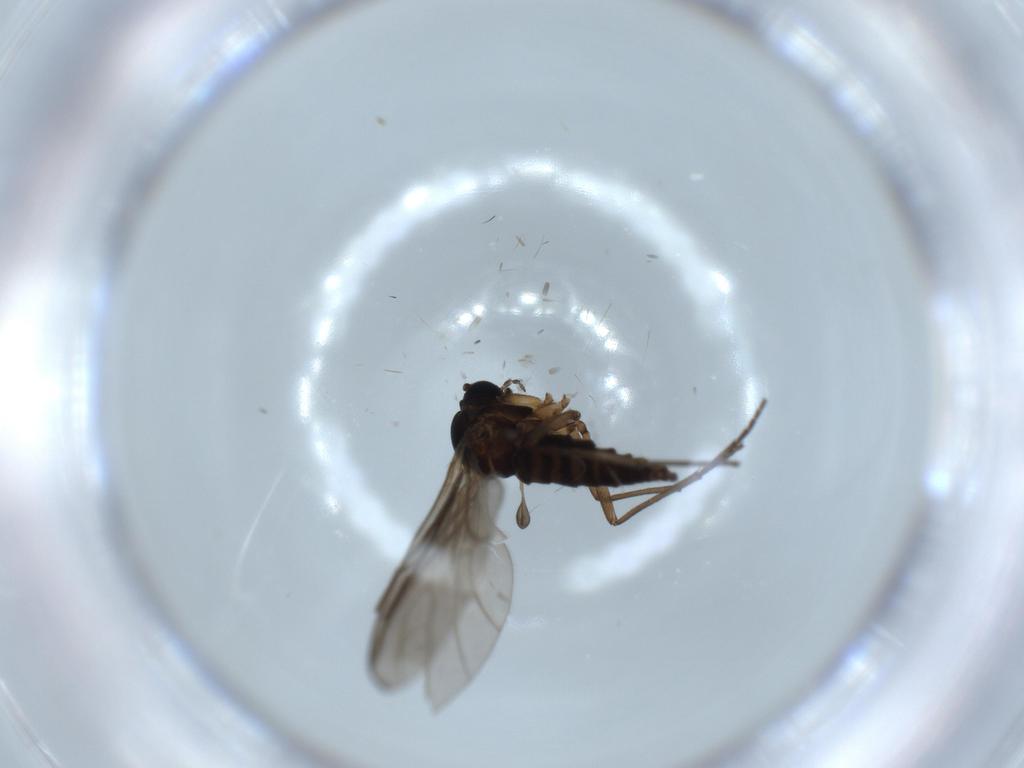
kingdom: Animalia
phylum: Arthropoda
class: Insecta
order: Diptera
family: Sciaridae
